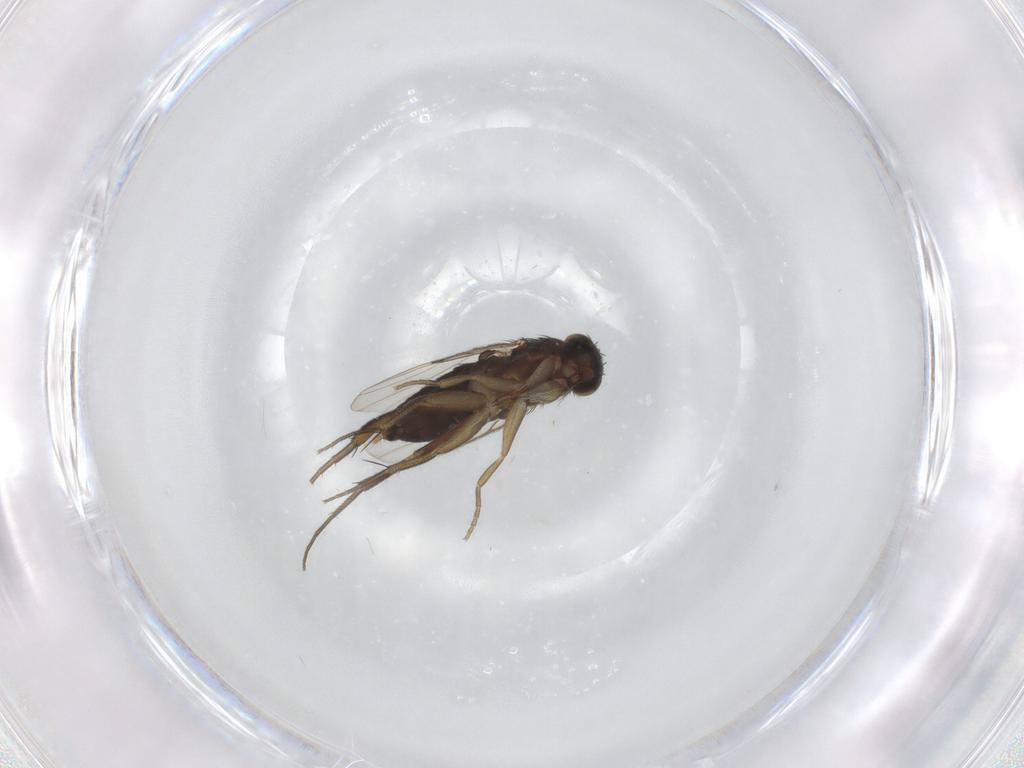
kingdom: Animalia
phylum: Arthropoda
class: Insecta
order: Diptera
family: Phoridae
